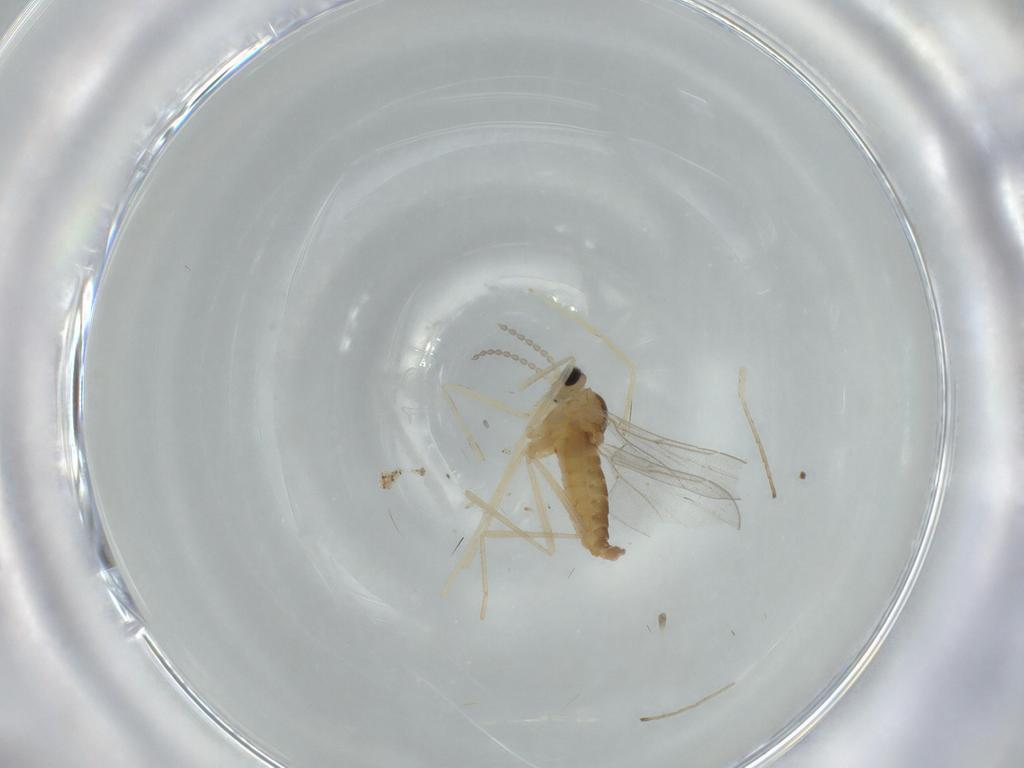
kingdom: Animalia
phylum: Arthropoda
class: Insecta
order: Diptera
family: Cecidomyiidae
